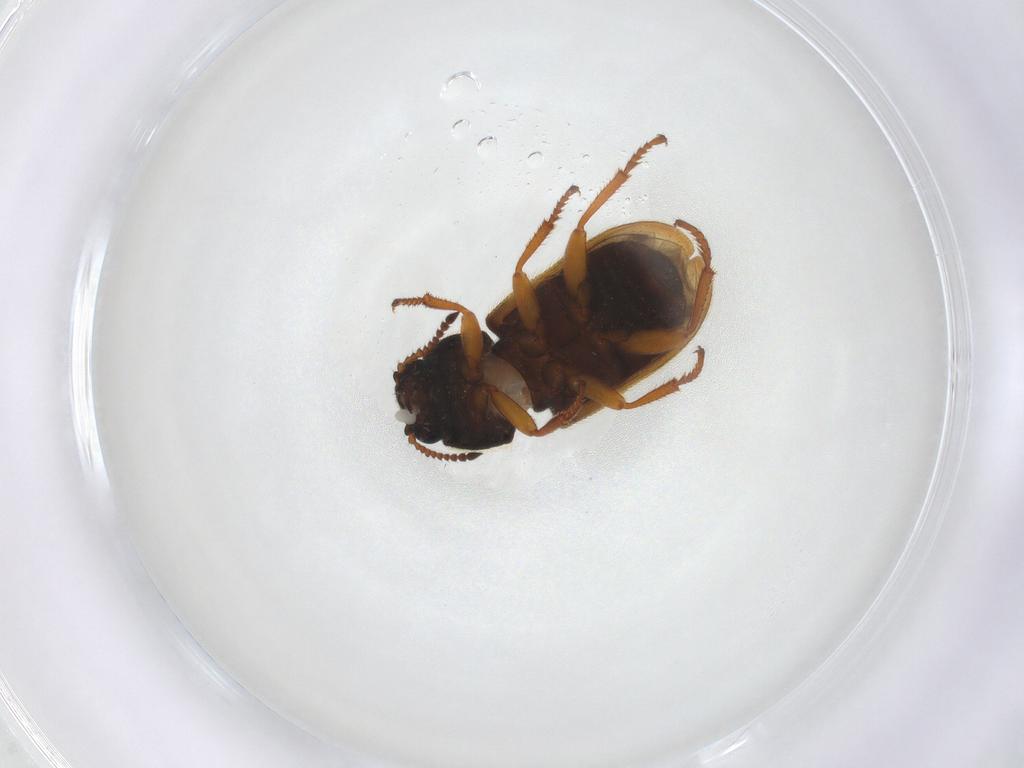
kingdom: Animalia
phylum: Arthropoda
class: Insecta
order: Coleoptera
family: Melyridae
